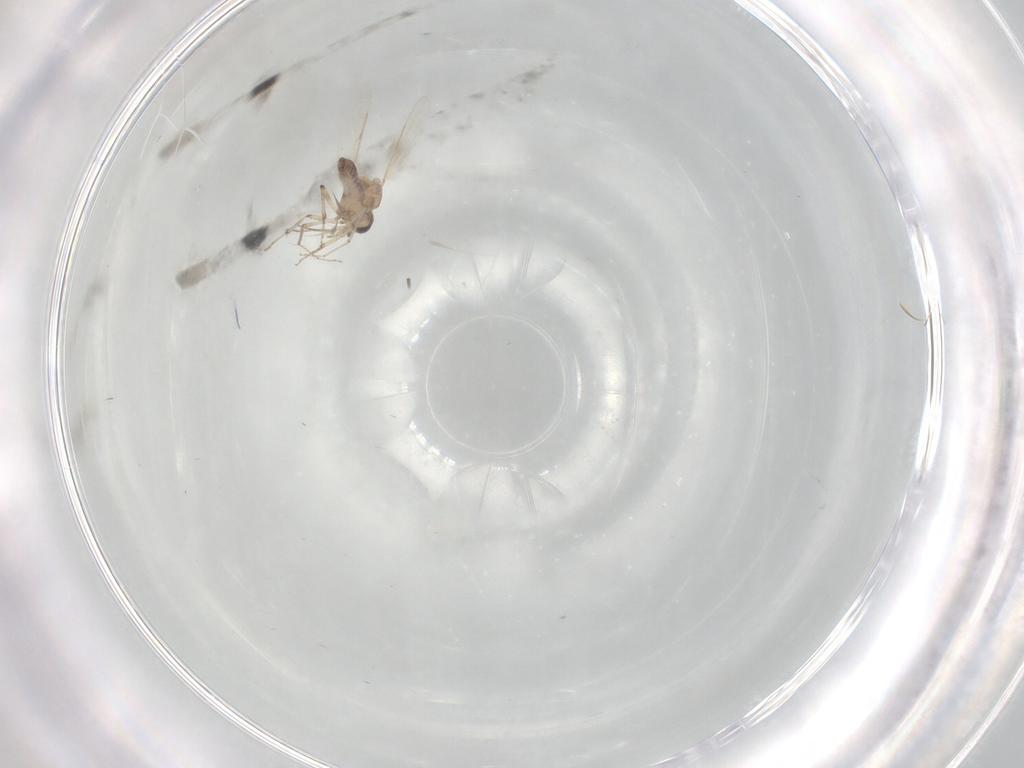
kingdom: Animalia
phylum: Arthropoda
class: Insecta
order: Diptera
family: Ceratopogonidae
